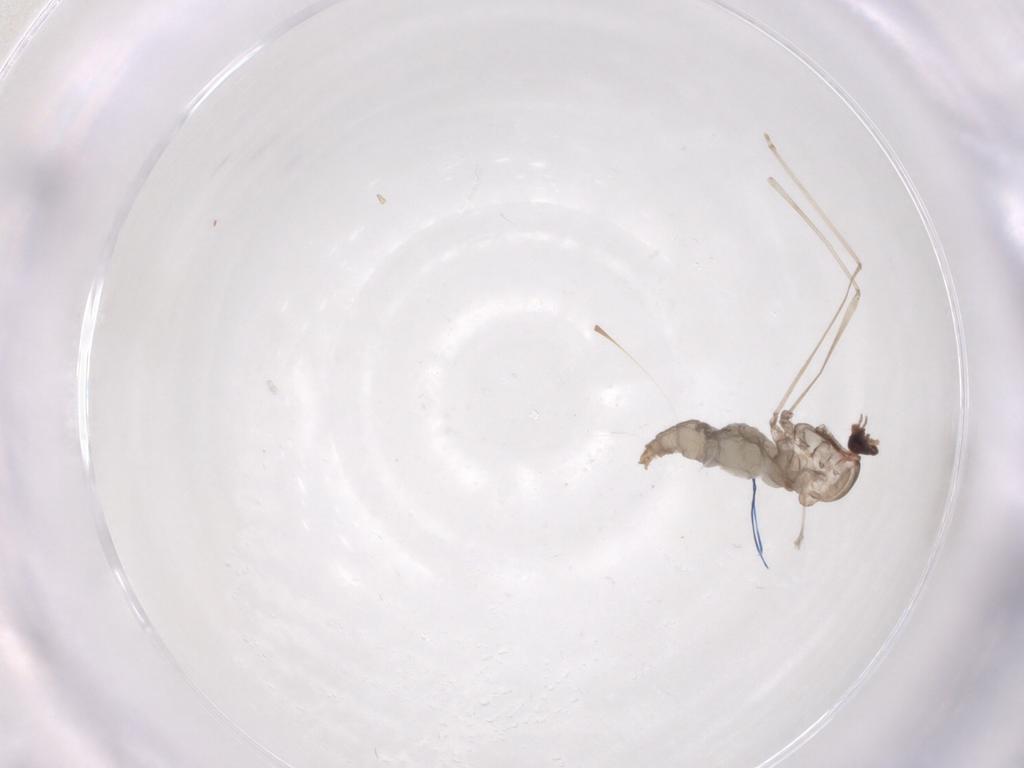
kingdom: Animalia
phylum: Arthropoda
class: Insecta
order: Diptera
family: Cecidomyiidae
